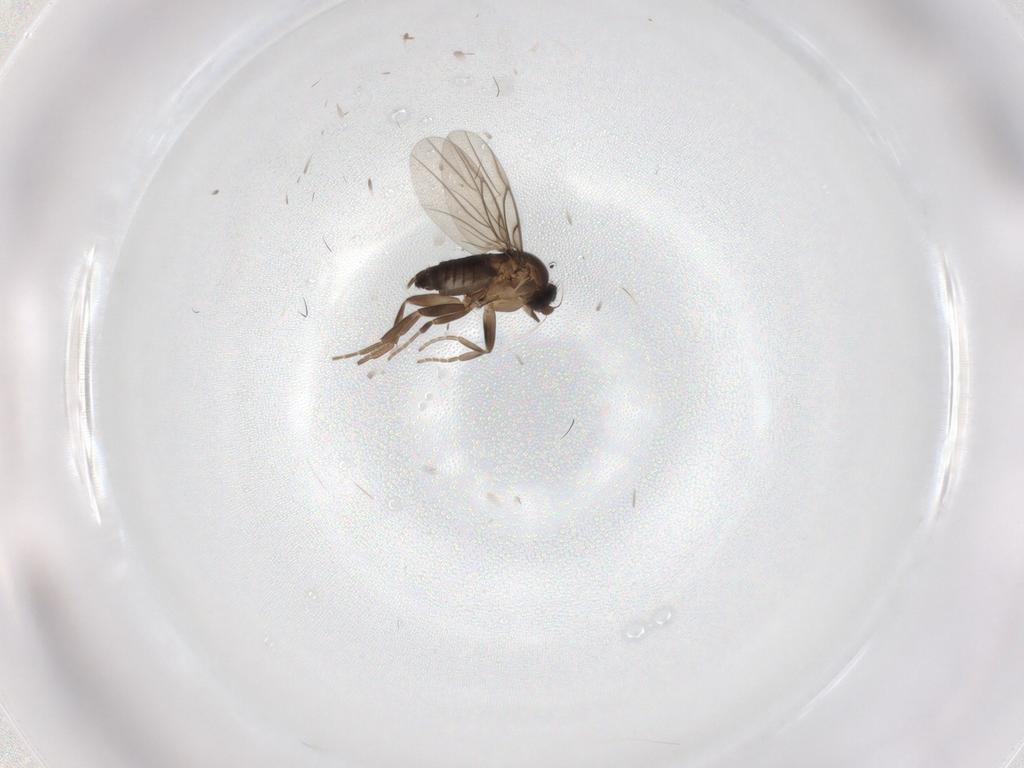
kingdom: Animalia
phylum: Arthropoda
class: Insecta
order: Diptera
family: Phoridae
